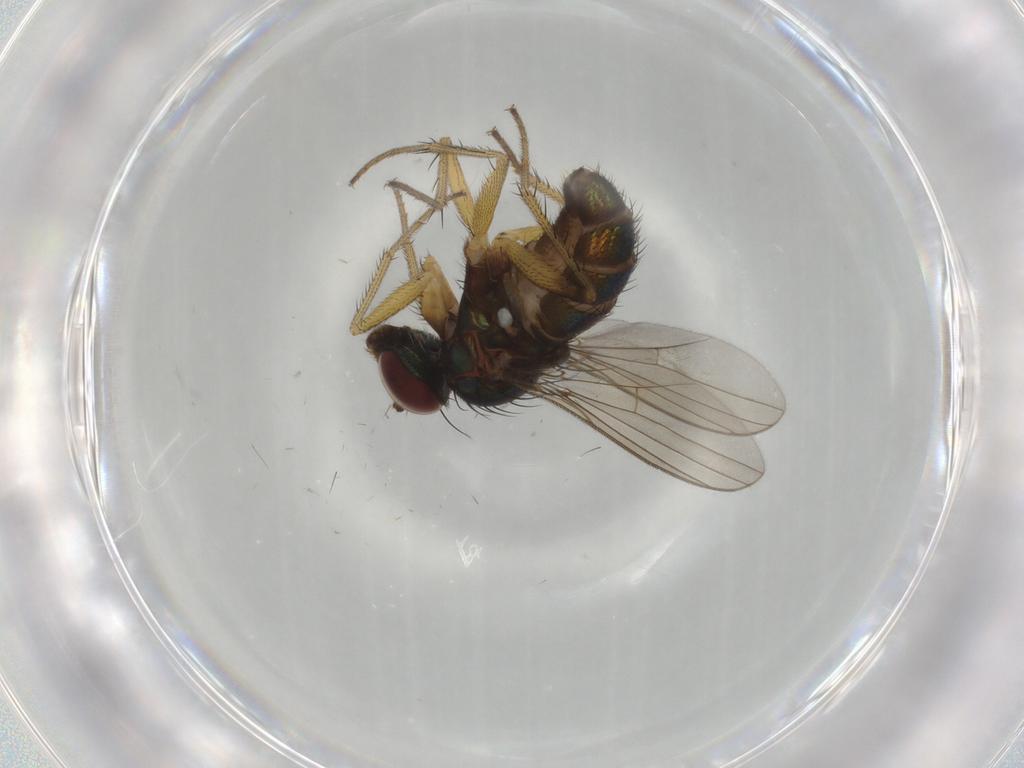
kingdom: Animalia
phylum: Arthropoda
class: Insecta
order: Diptera
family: Dolichopodidae
